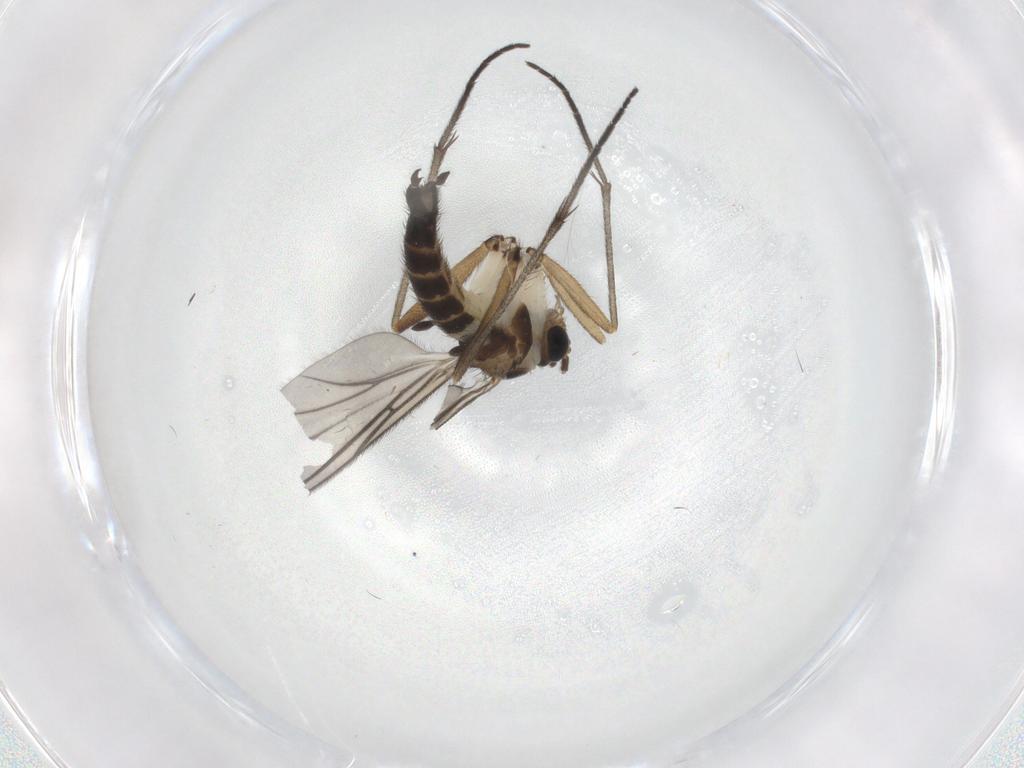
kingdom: Animalia
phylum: Arthropoda
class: Insecta
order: Diptera
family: Sciaridae
